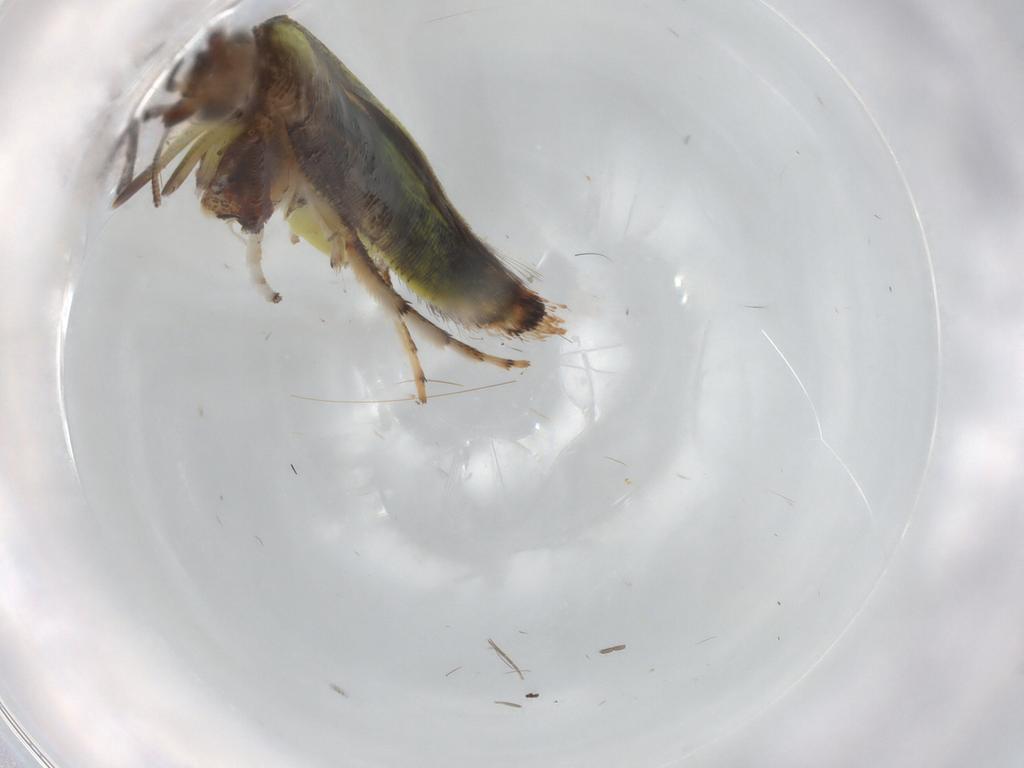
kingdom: Animalia
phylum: Arthropoda
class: Insecta
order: Lepidoptera
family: Gracillariidae
